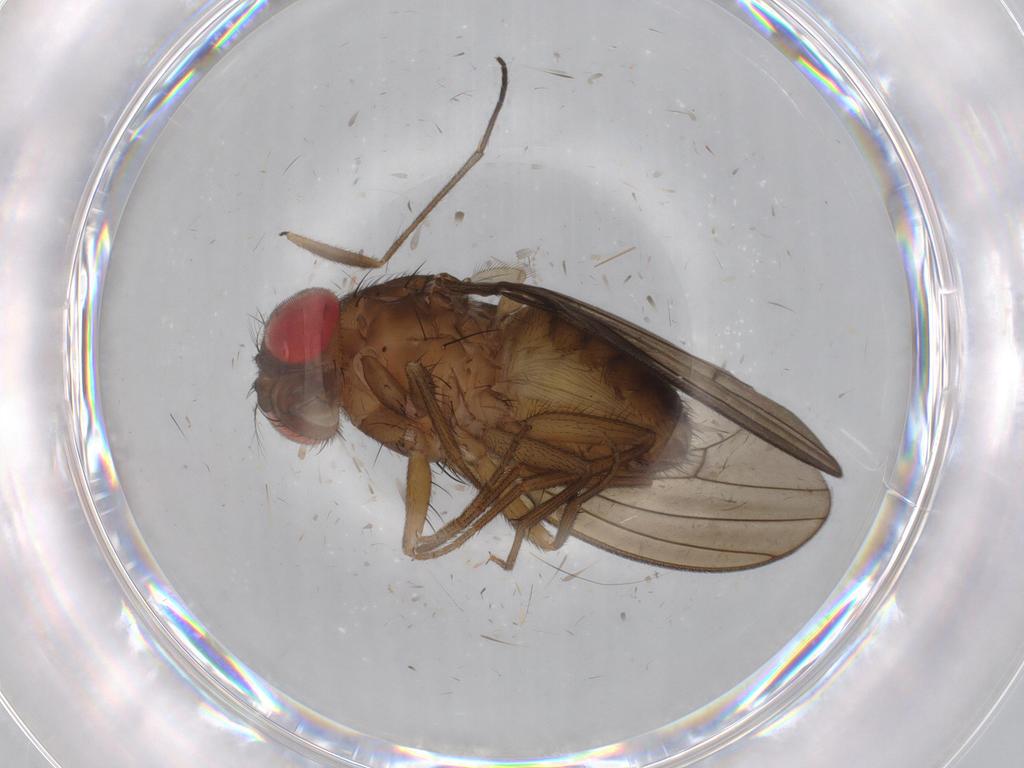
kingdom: Animalia
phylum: Arthropoda
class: Insecta
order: Diptera
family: Drosophilidae
